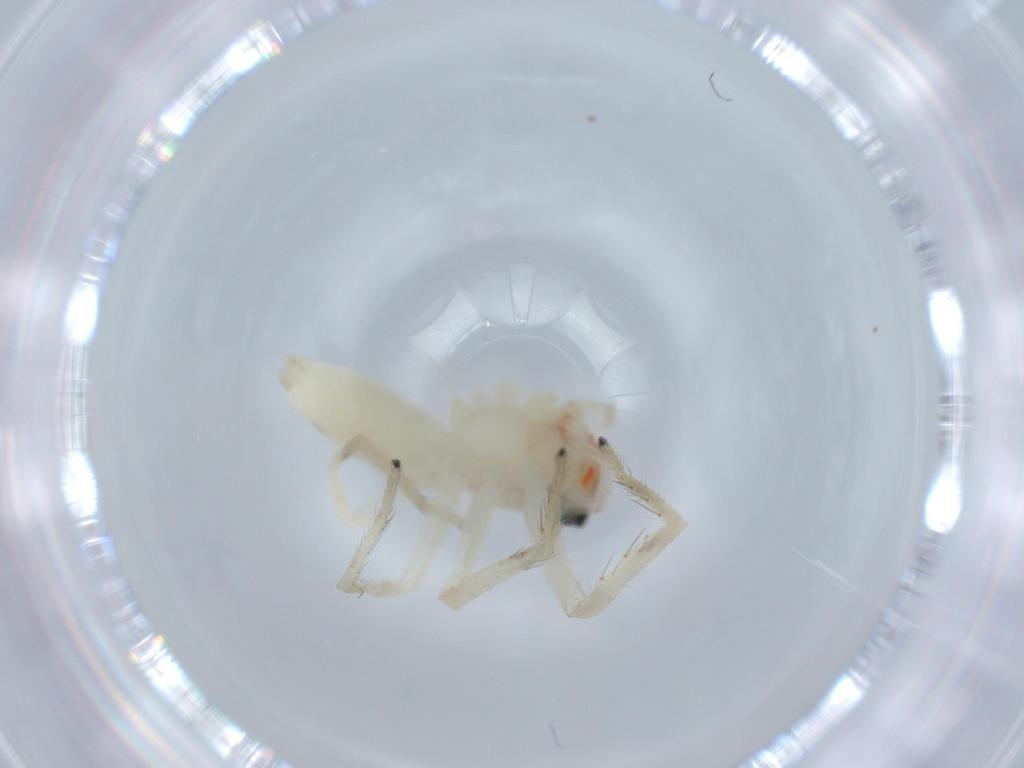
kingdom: Animalia
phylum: Arthropoda
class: Arachnida
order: Araneae
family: Salticidae
